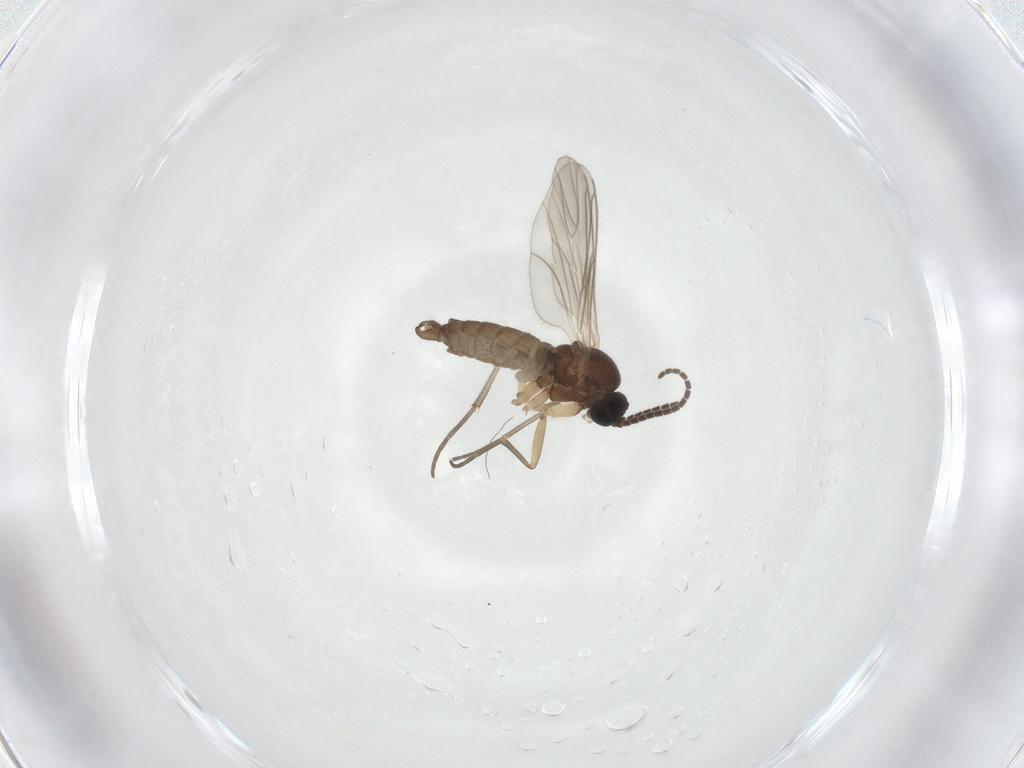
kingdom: Animalia
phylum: Arthropoda
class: Insecta
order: Diptera
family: Sciaridae
